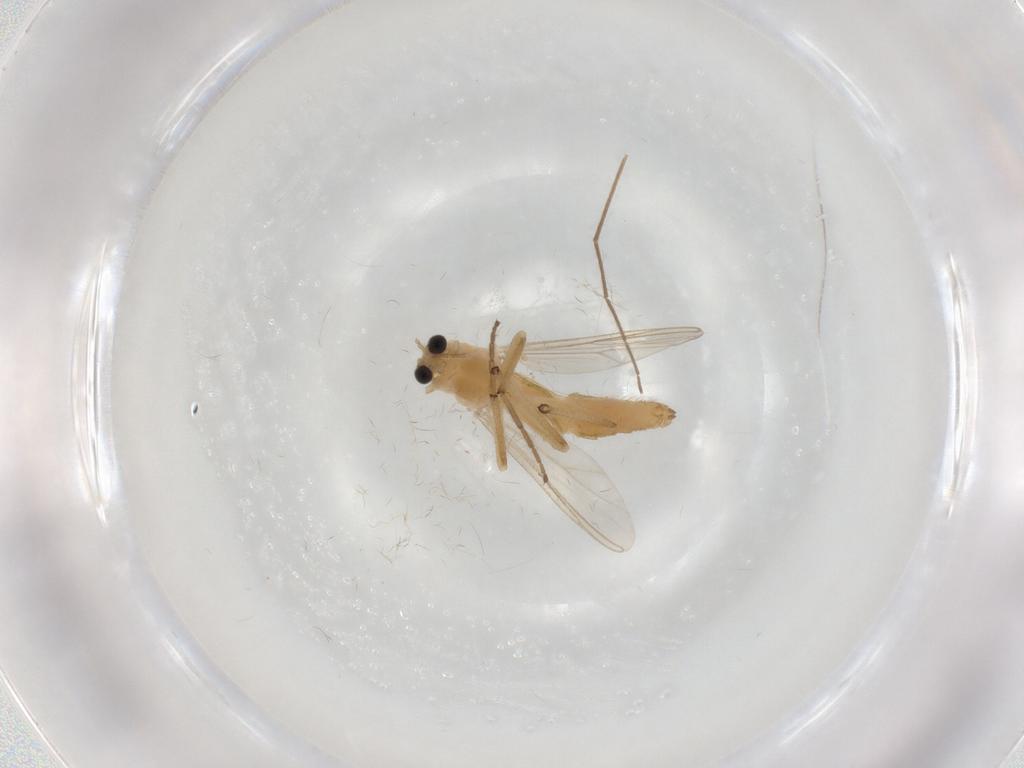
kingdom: Animalia
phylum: Arthropoda
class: Insecta
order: Diptera
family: Chironomidae
